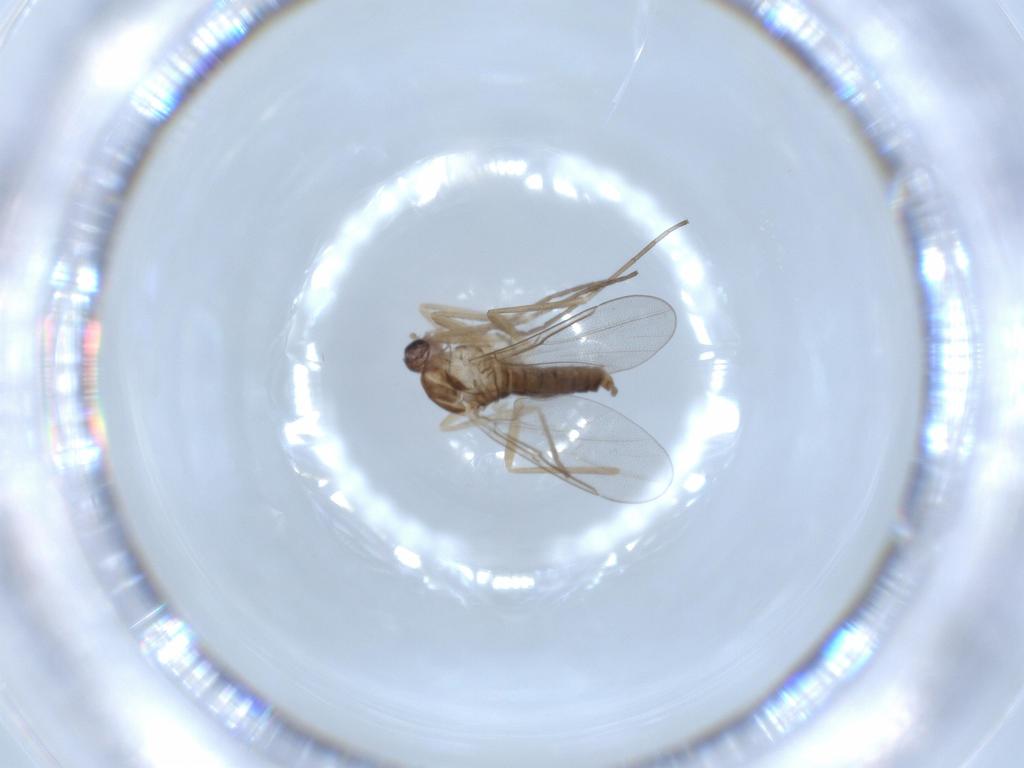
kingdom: Animalia
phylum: Arthropoda
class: Insecta
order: Diptera
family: Cecidomyiidae
